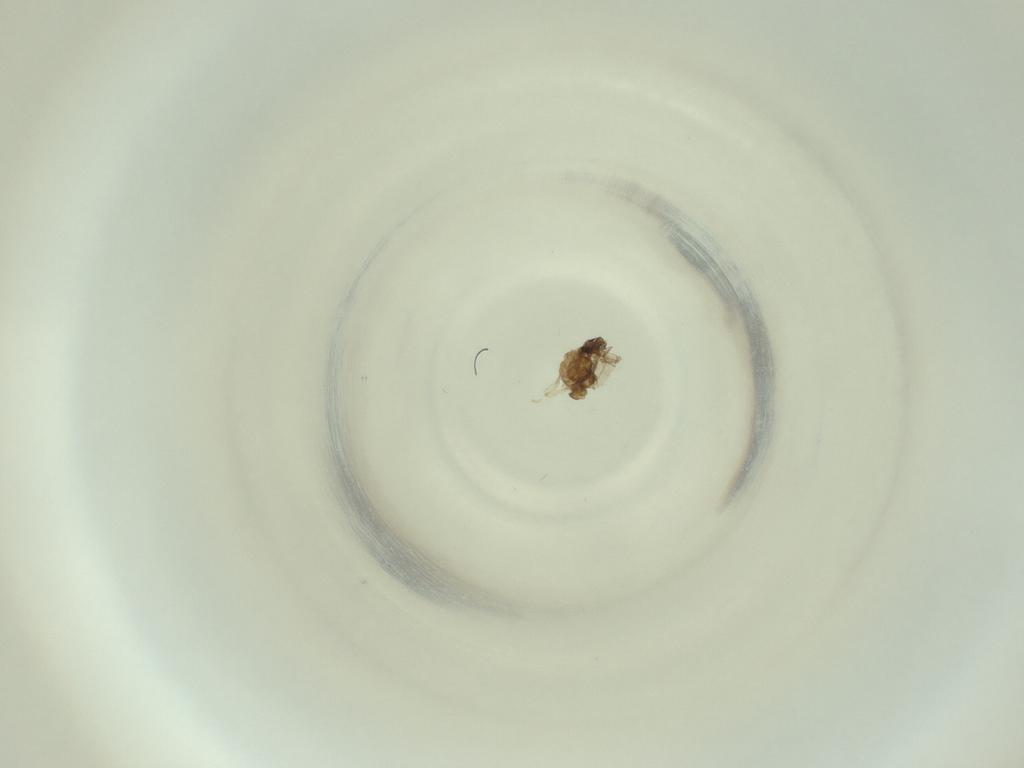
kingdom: Animalia
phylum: Arthropoda
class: Insecta
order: Diptera
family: Cecidomyiidae
